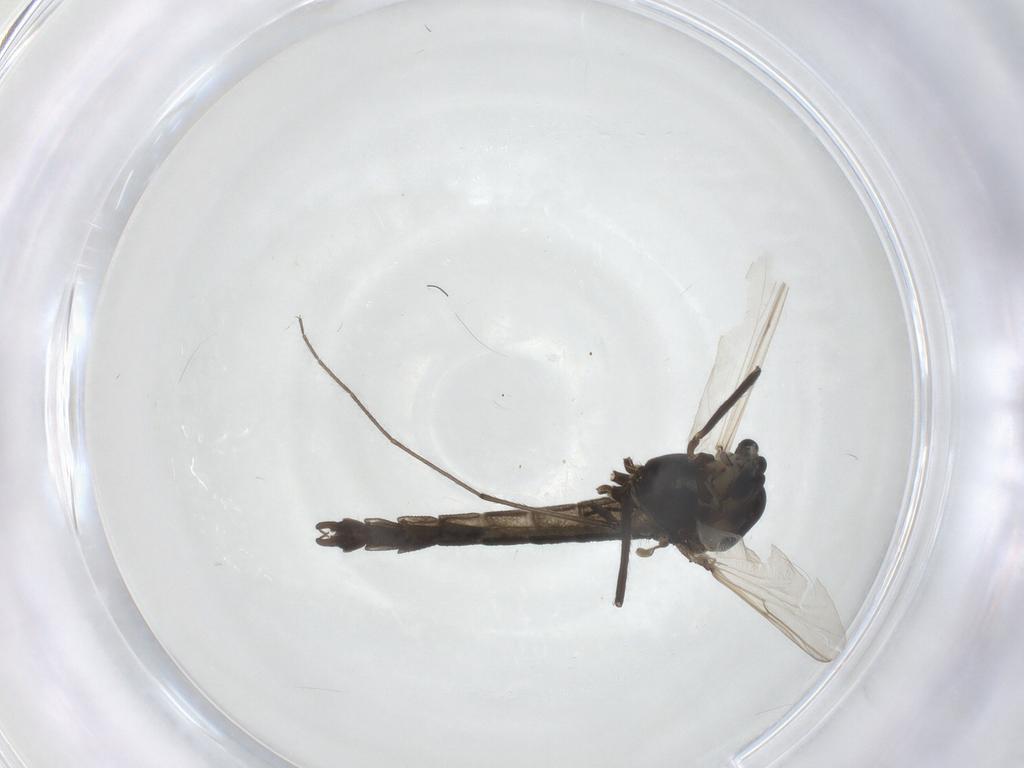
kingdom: Animalia
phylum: Arthropoda
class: Insecta
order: Diptera
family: Chironomidae
